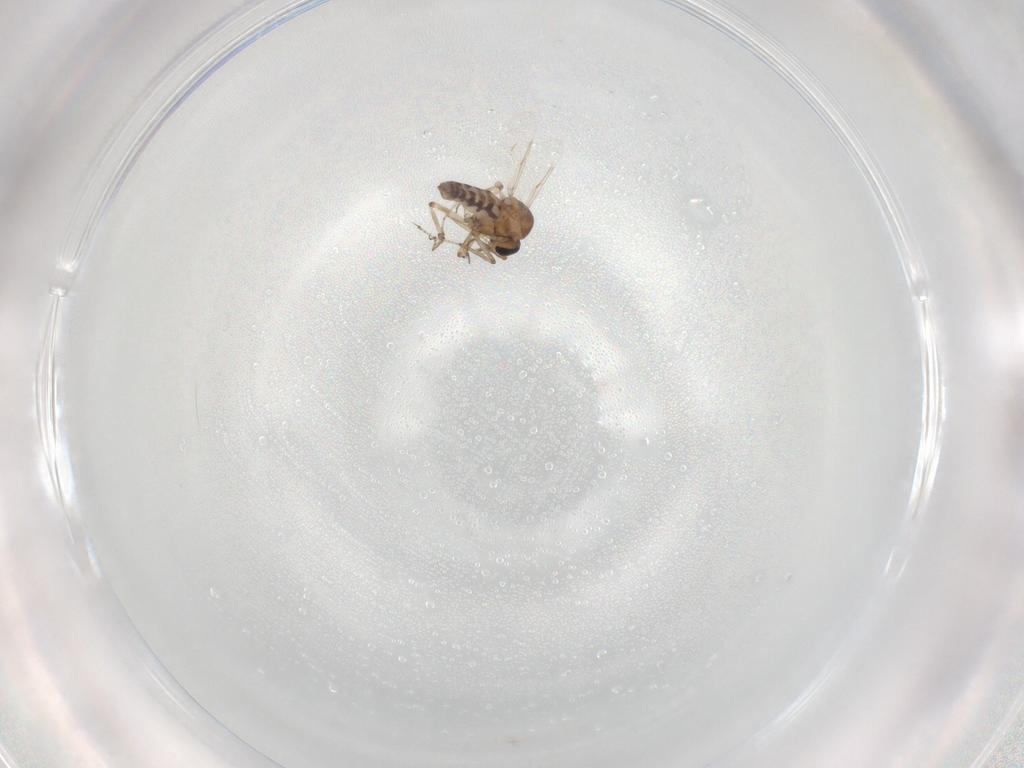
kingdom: Animalia
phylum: Arthropoda
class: Insecta
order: Diptera
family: Ceratopogonidae
